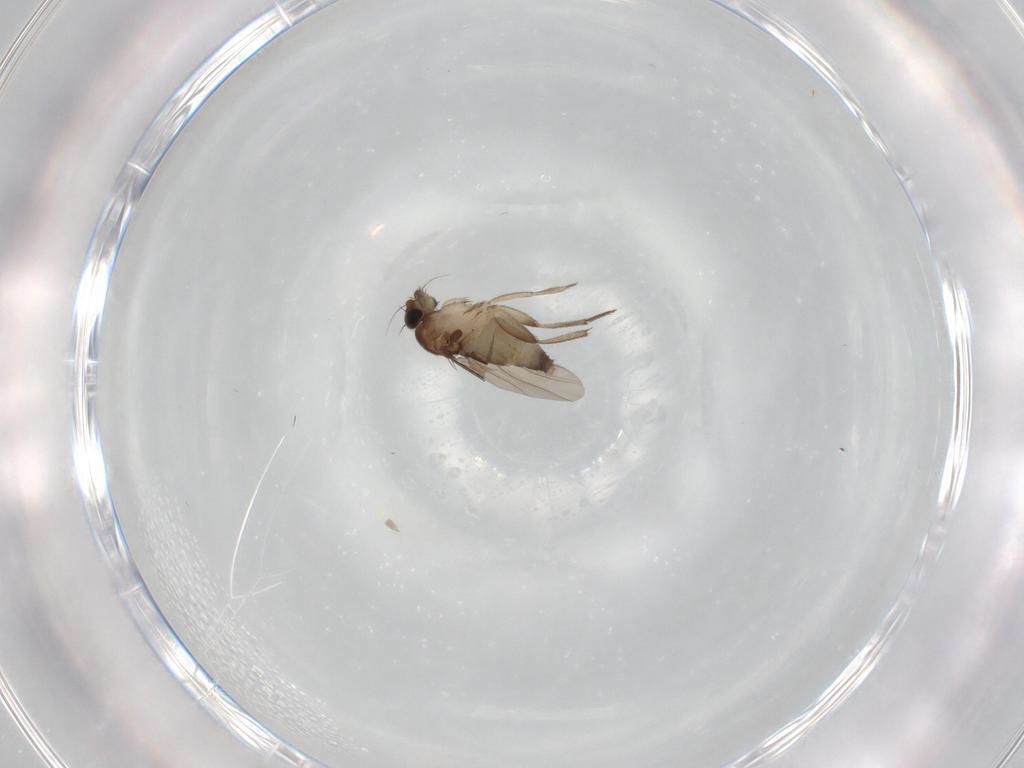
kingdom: Animalia
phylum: Arthropoda
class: Insecta
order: Diptera
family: Phoridae
